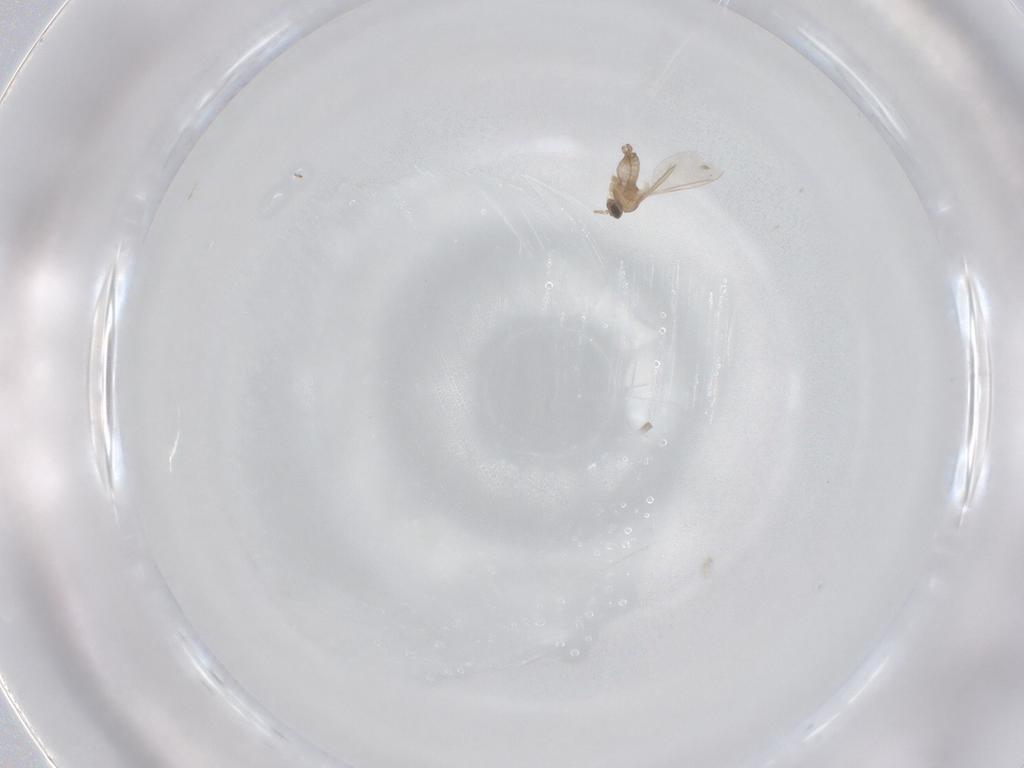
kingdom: Animalia
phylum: Arthropoda
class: Insecta
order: Diptera
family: Cecidomyiidae
